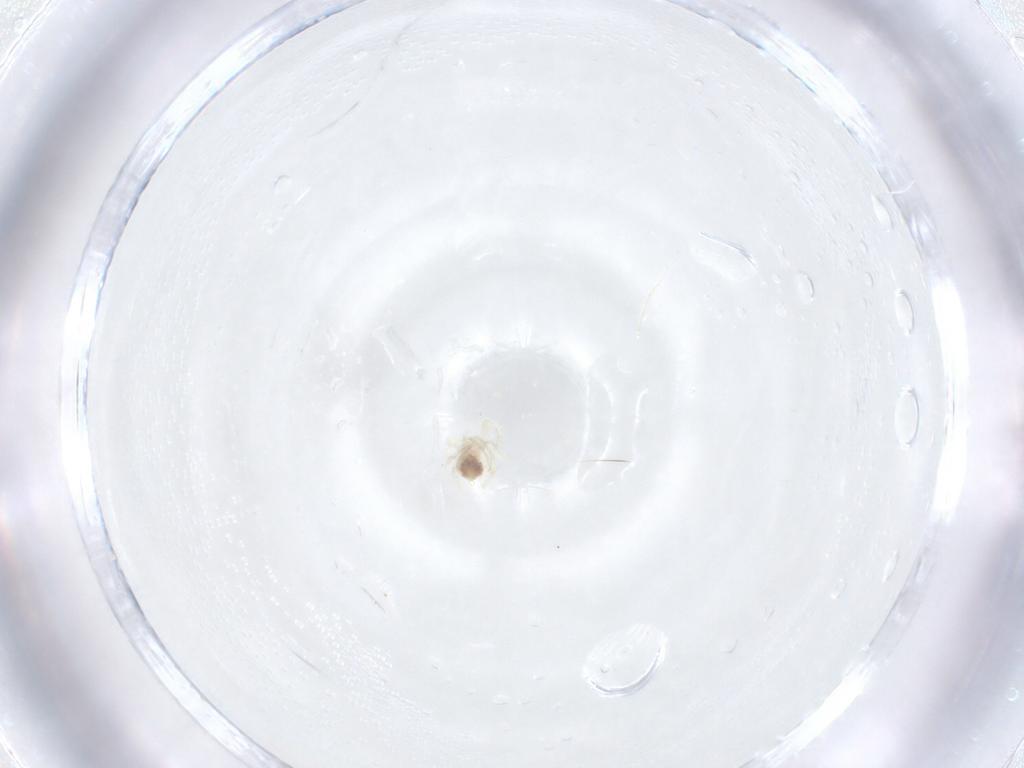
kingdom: Animalia
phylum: Arthropoda
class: Arachnida
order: Trombidiformes
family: Anystidae
